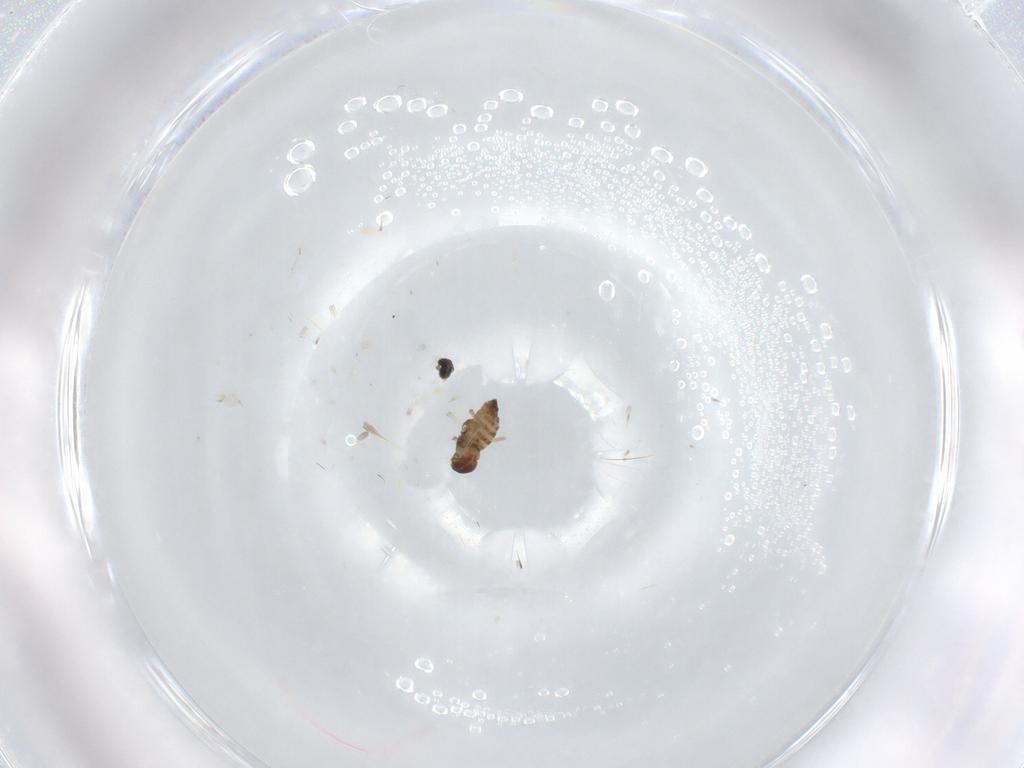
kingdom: Animalia
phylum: Arthropoda
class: Insecta
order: Diptera
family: Cecidomyiidae
